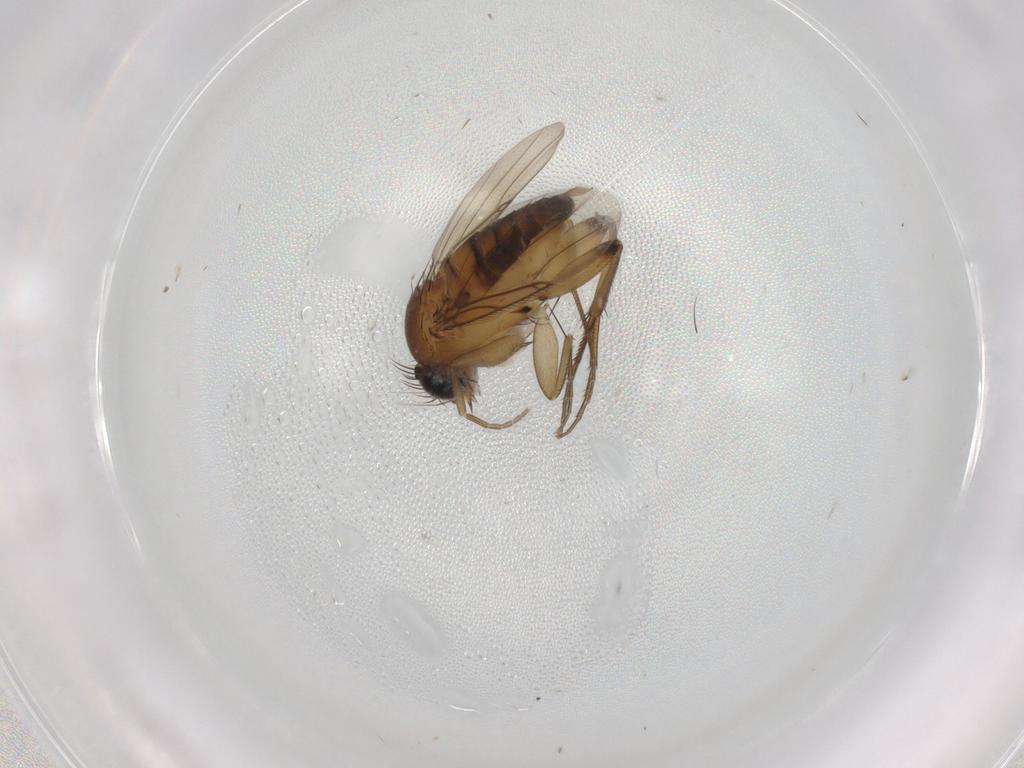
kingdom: Animalia
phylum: Arthropoda
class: Insecta
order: Diptera
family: Phoridae
